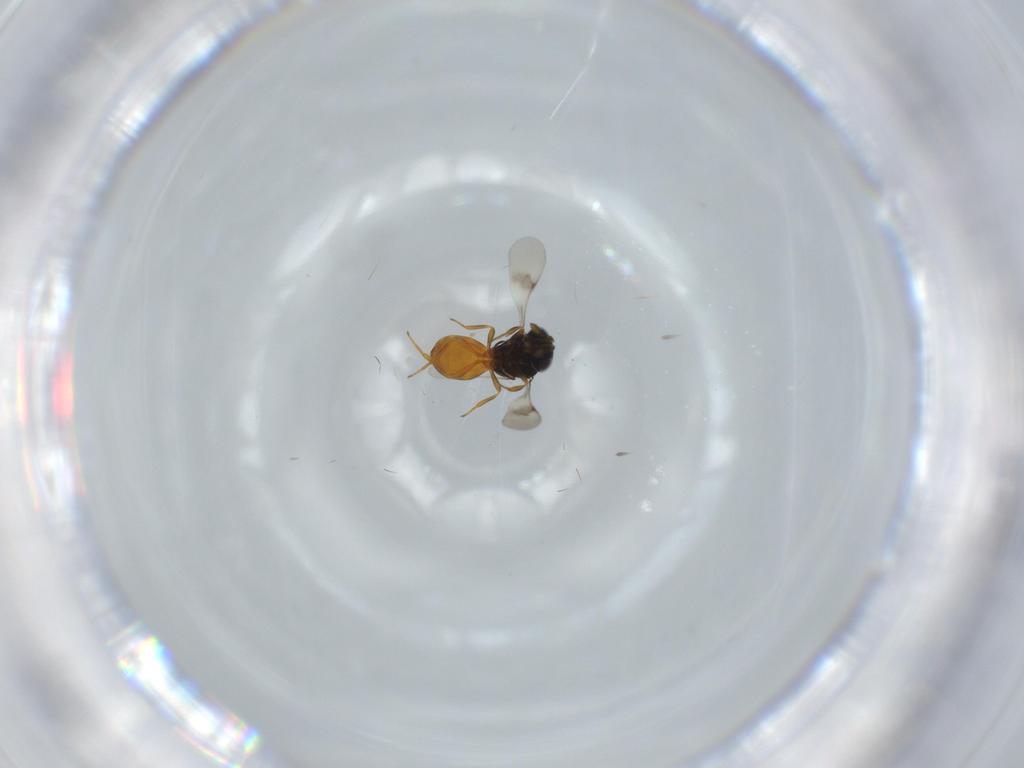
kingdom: Animalia
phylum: Arthropoda
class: Insecta
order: Hymenoptera
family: Scelionidae
